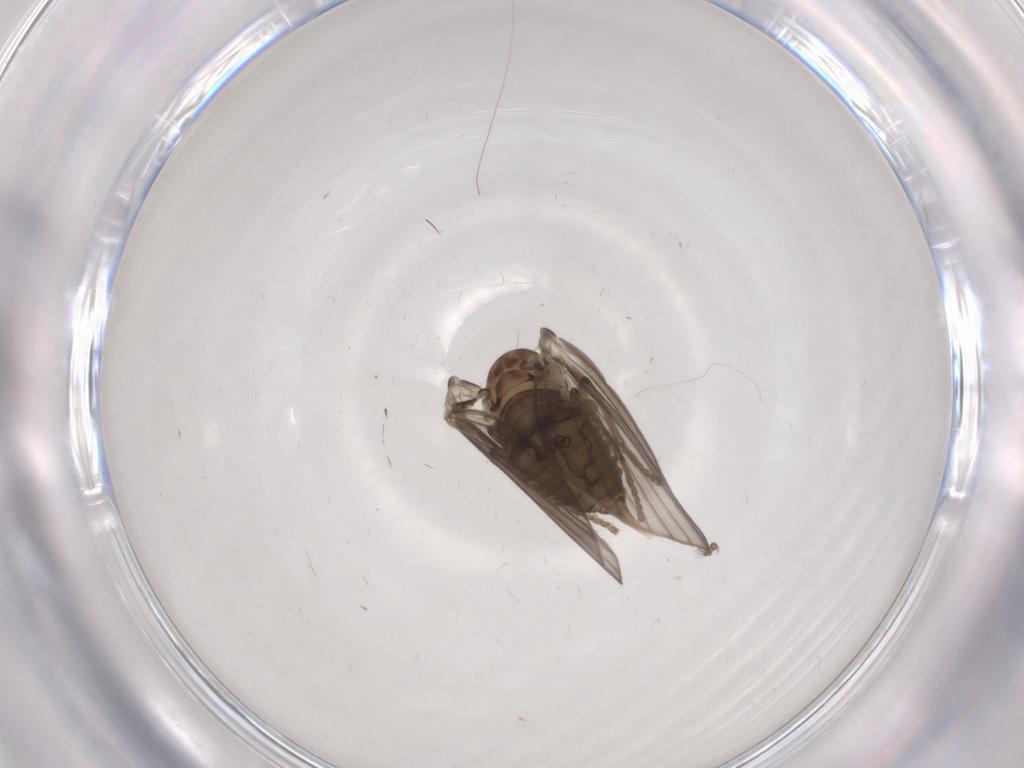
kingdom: Animalia
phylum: Arthropoda
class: Insecta
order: Diptera
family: Psychodidae
